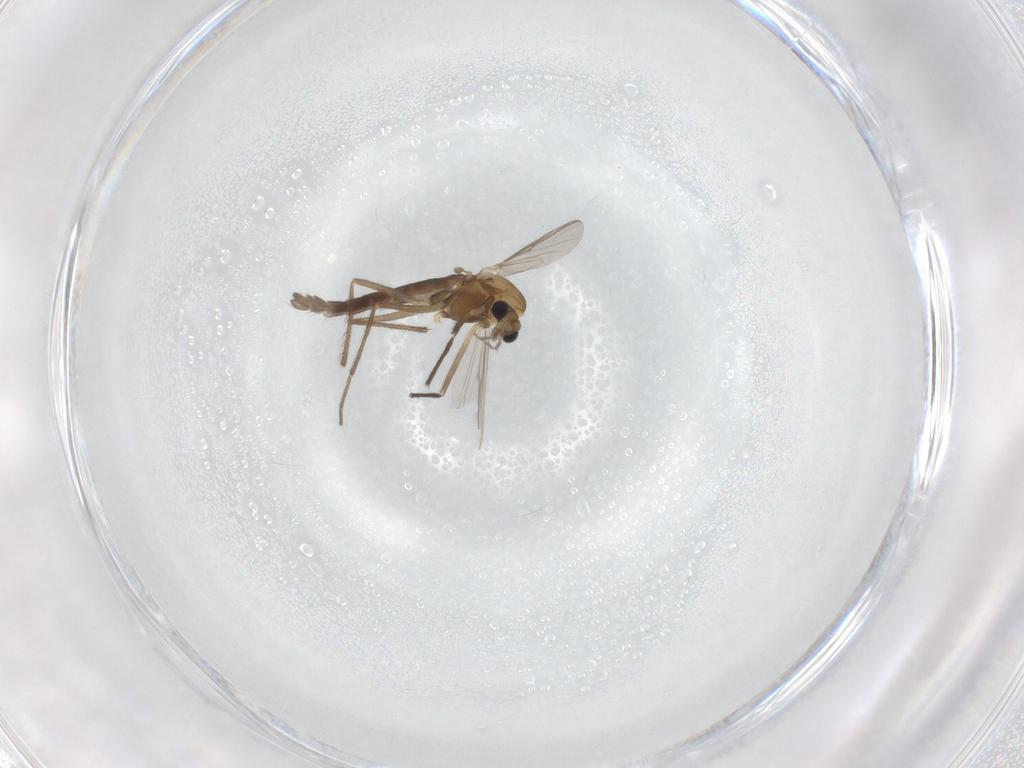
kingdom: Animalia
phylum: Arthropoda
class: Insecta
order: Diptera
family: Chironomidae
